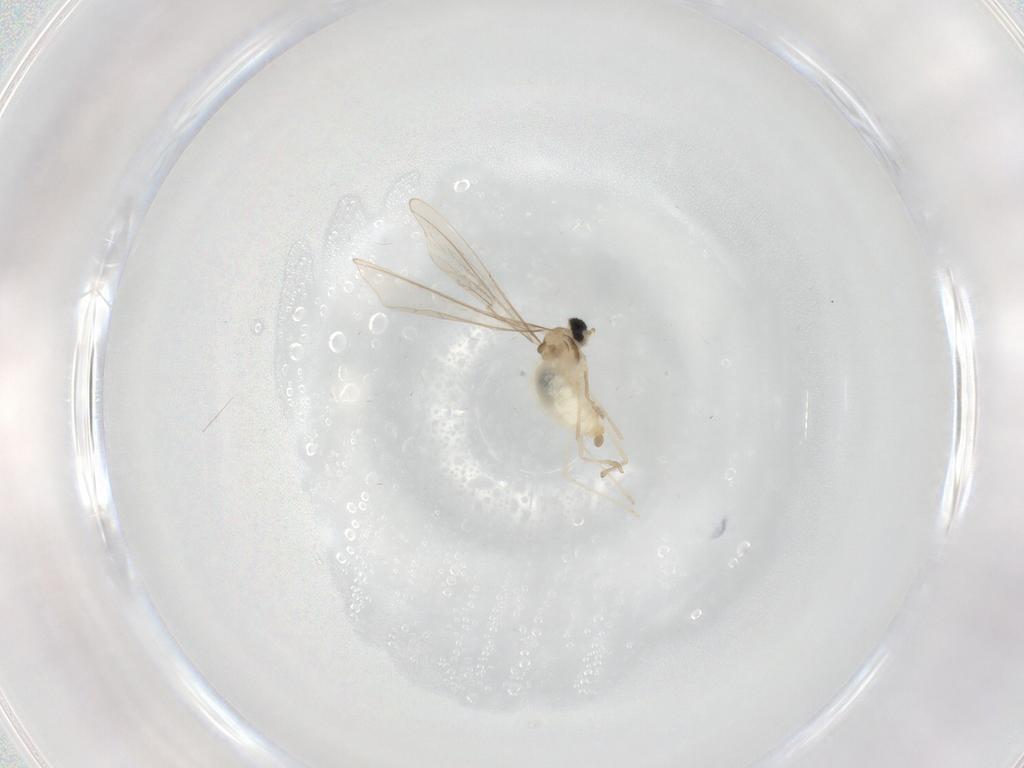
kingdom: Animalia
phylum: Arthropoda
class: Insecta
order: Diptera
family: Cecidomyiidae
